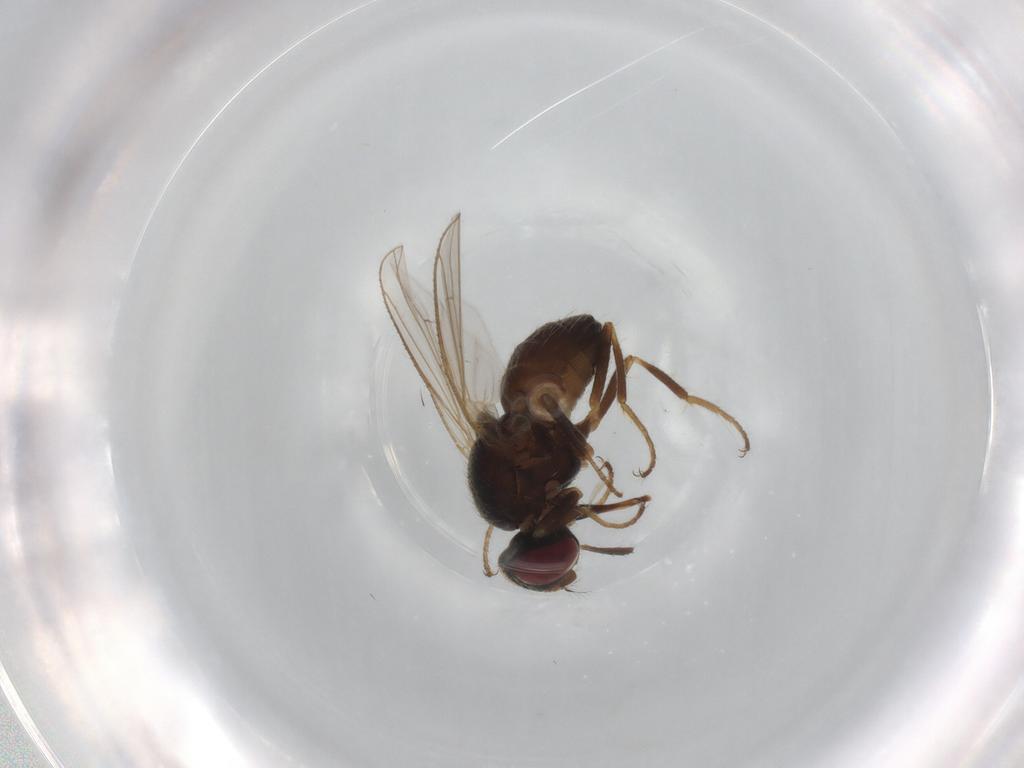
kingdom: Animalia
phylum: Arthropoda
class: Insecta
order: Diptera
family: Muscidae
